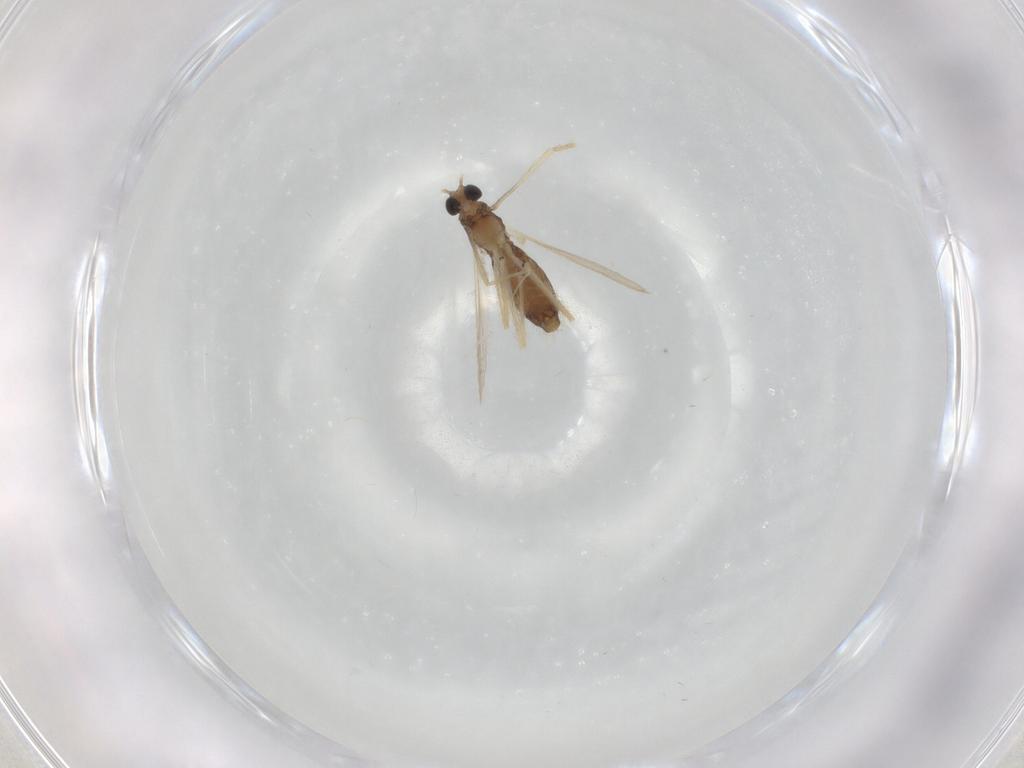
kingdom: Animalia
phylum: Arthropoda
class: Insecta
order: Diptera
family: Chironomidae
